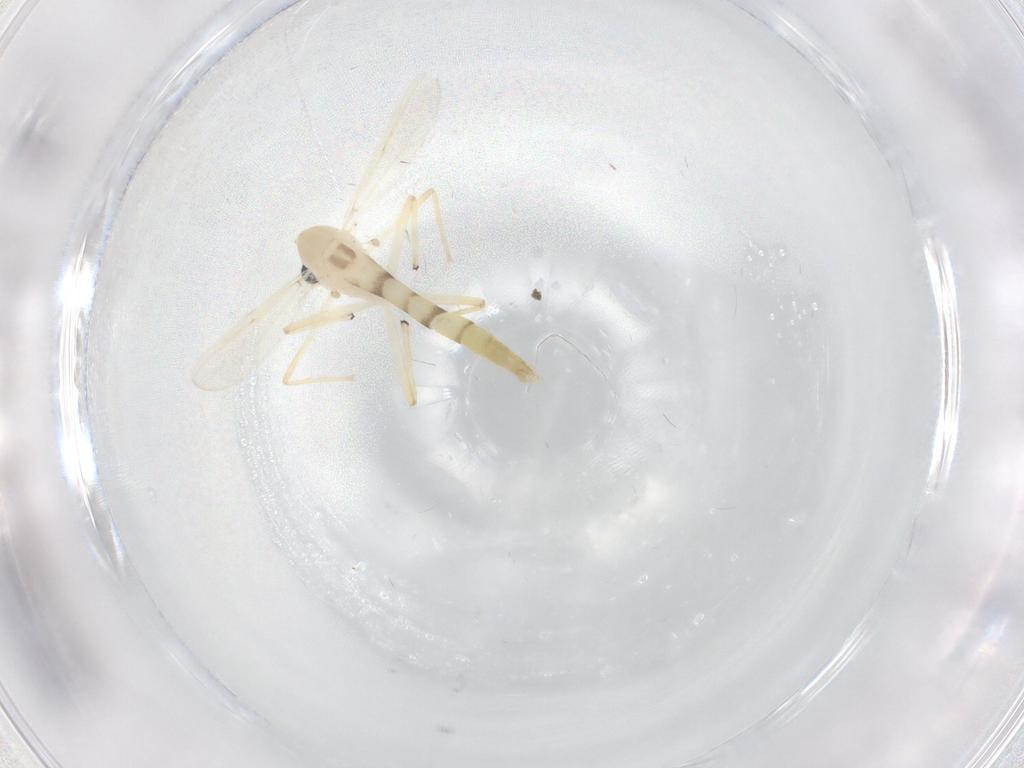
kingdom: Animalia
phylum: Arthropoda
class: Insecta
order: Diptera
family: Chironomidae
